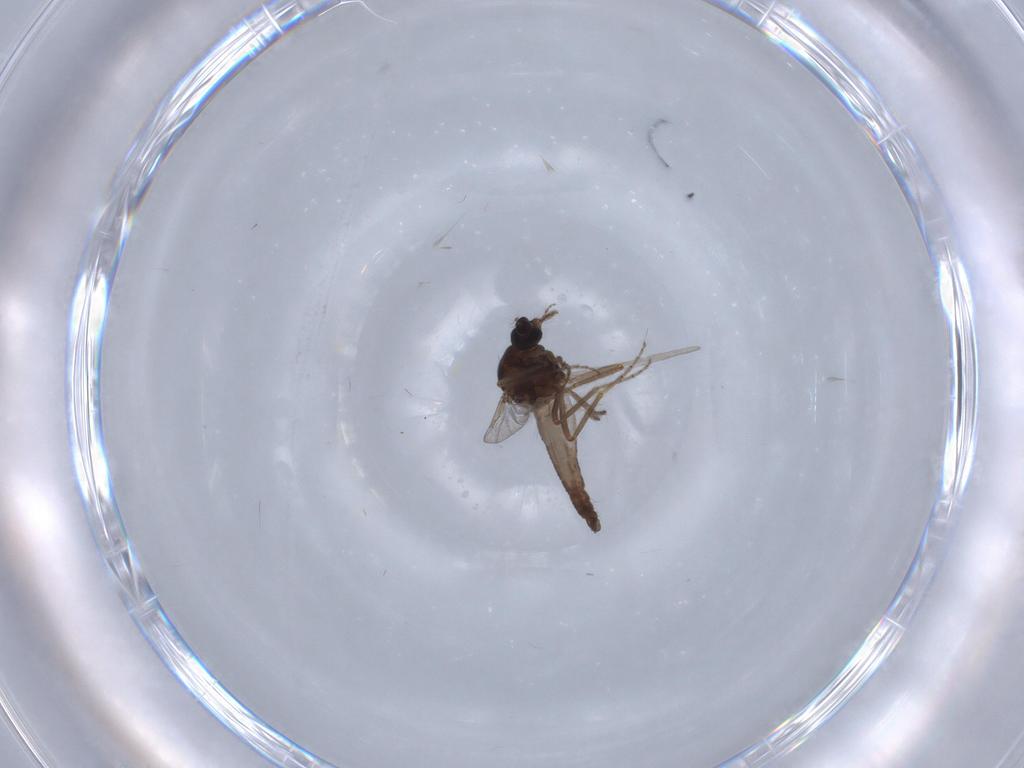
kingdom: Animalia
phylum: Arthropoda
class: Insecta
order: Diptera
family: Ceratopogonidae
